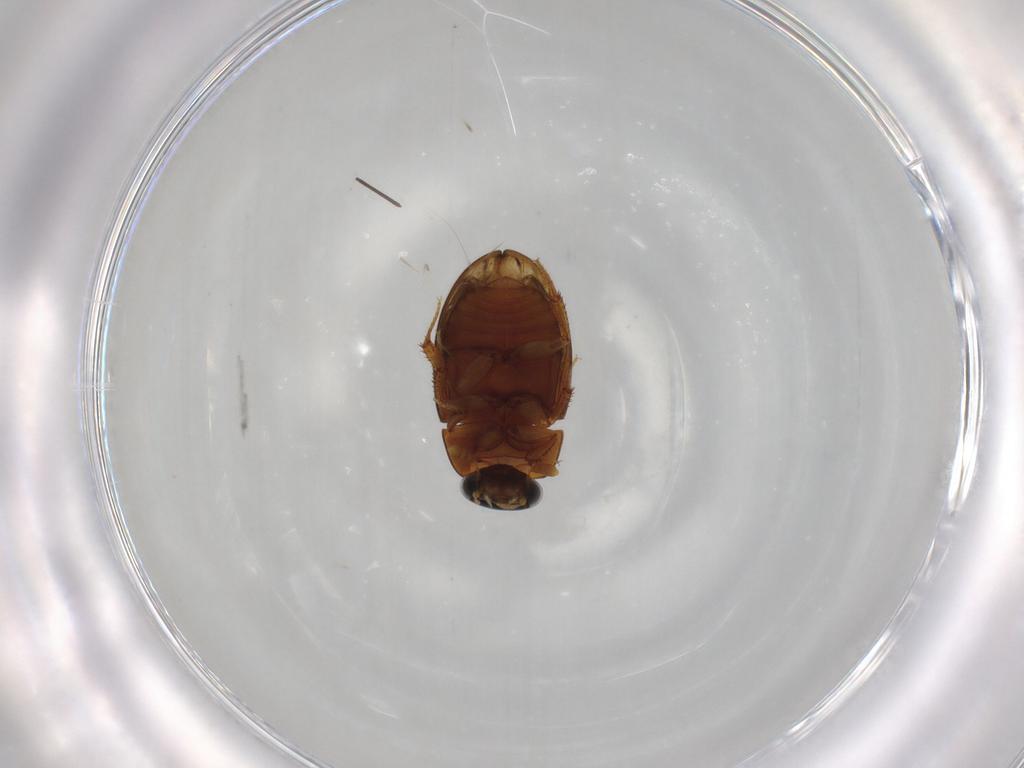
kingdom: Animalia
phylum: Arthropoda
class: Insecta
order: Coleoptera
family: Hydrophilidae
